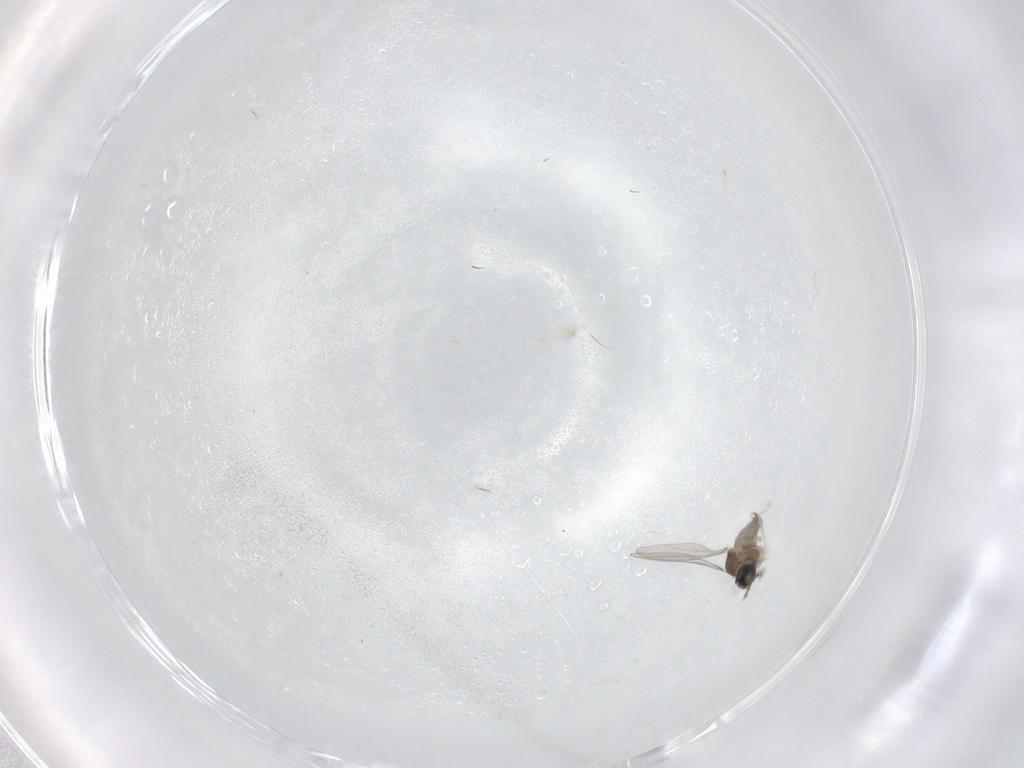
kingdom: Animalia
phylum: Arthropoda
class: Insecta
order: Diptera
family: Cecidomyiidae
